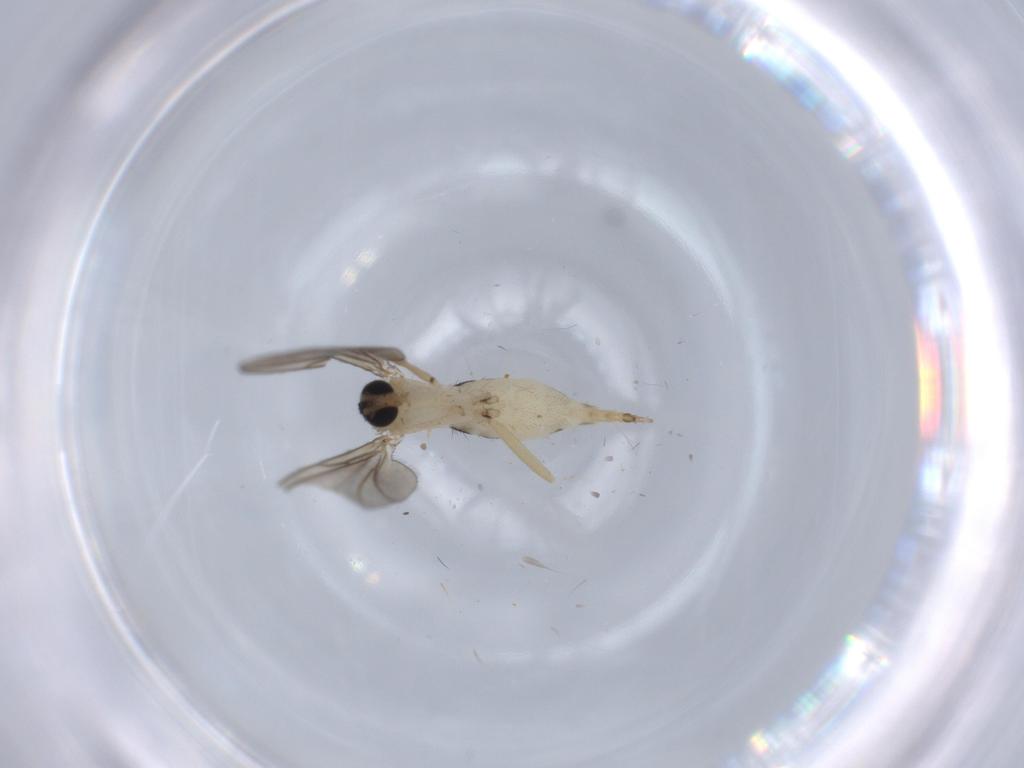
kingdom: Animalia
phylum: Arthropoda
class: Insecta
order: Diptera
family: Sciaridae
